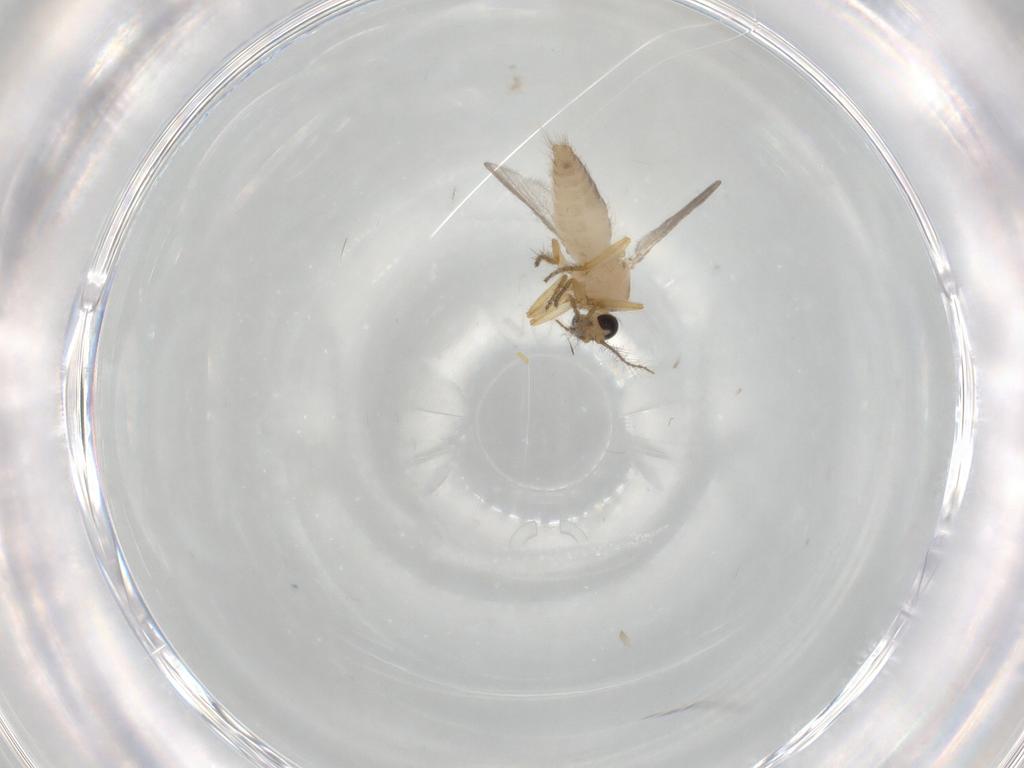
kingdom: Animalia
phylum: Arthropoda
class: Insecta
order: Diptera
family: Ceratopogonidae
